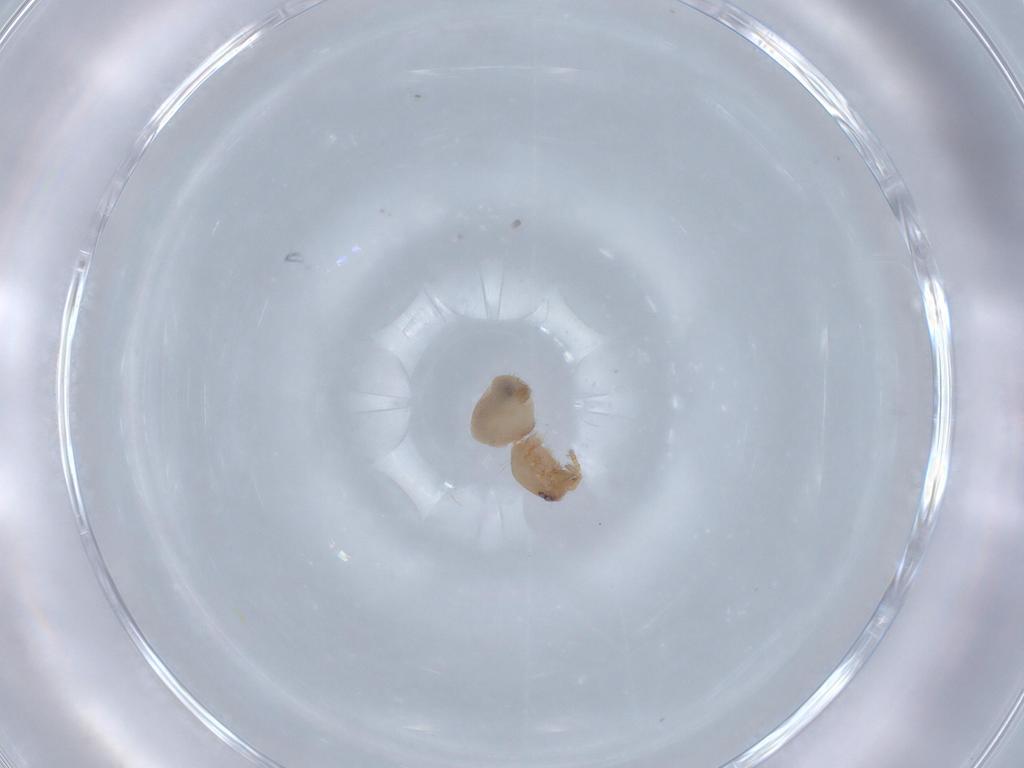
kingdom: Animalia
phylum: Arthropoda
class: Arachnida
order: Araneae
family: Oonopidae
